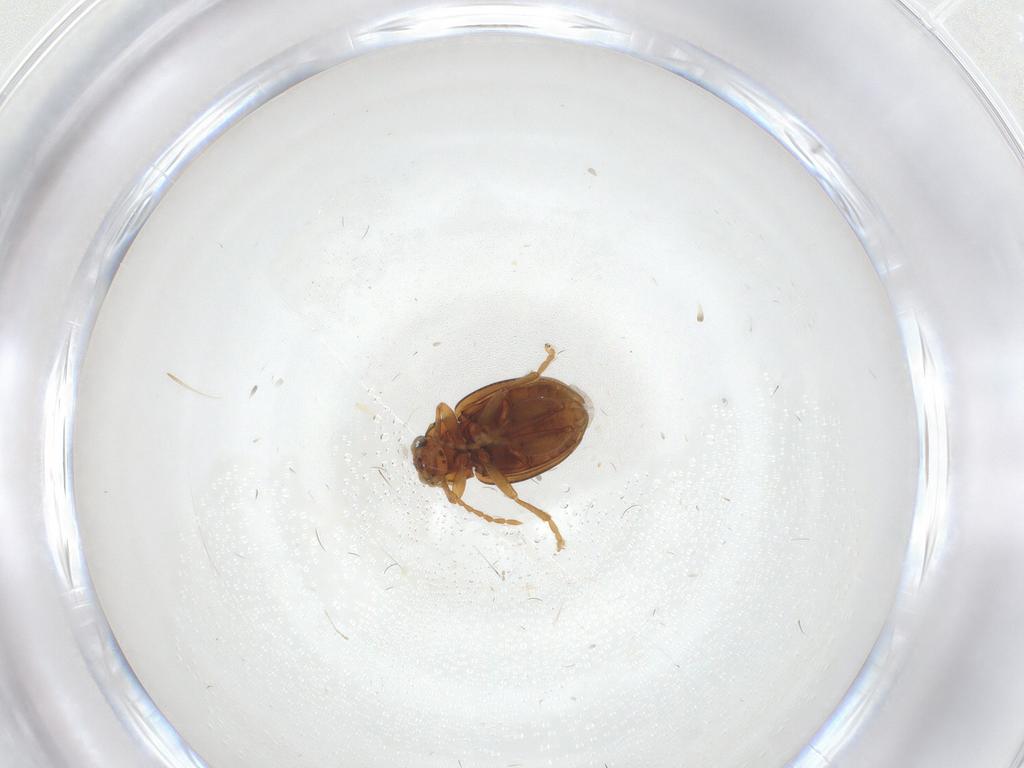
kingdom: Animalia
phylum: Arthropoda
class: Insecta
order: Coleoptera
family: Chrysomelidae
